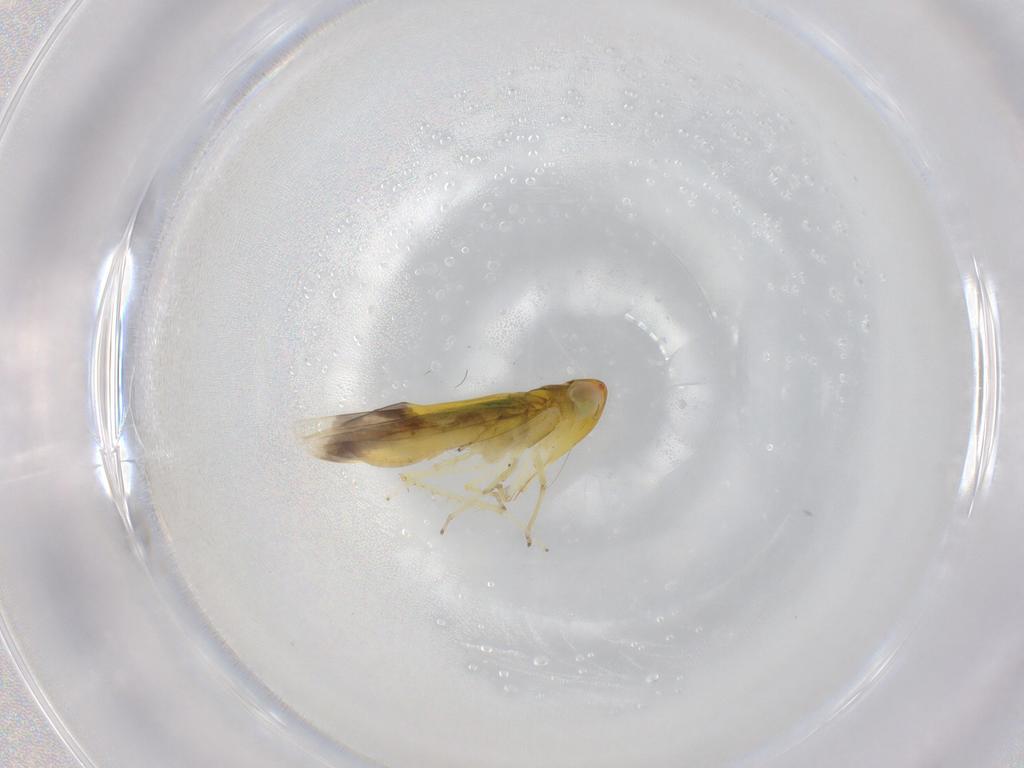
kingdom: Animalia
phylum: Arthropoda
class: Insecta
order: Hemiptera
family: Cicadellidae
